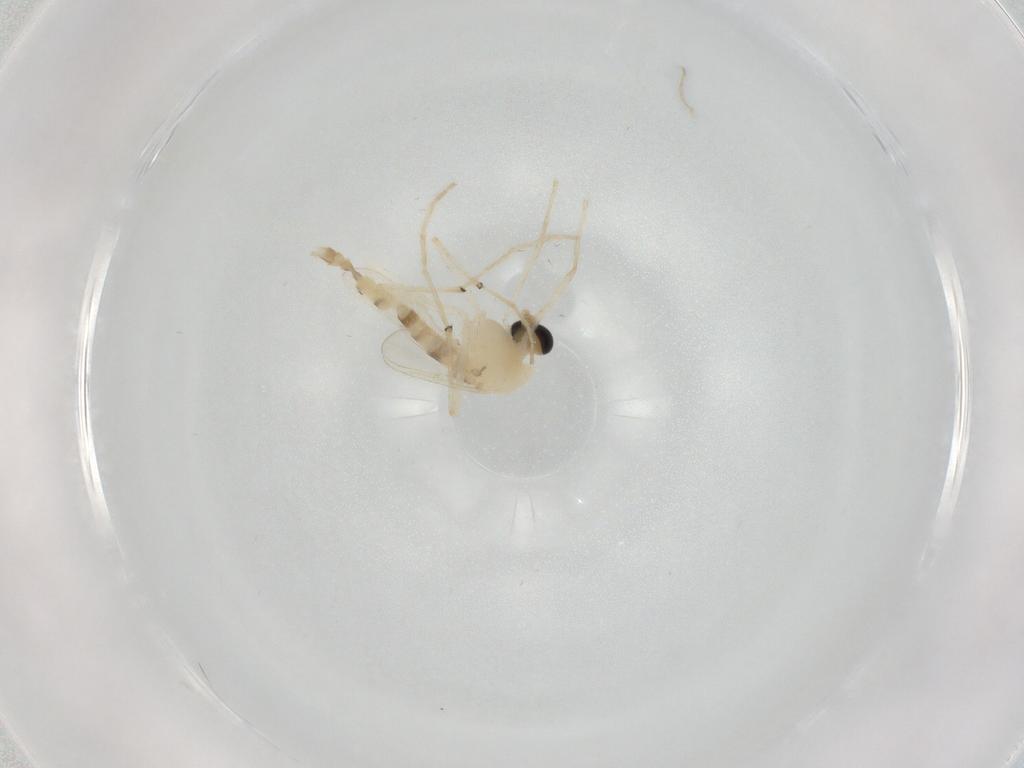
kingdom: Animalia
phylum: Arthropoda
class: Insecta
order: Diptera
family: Chironomidae
